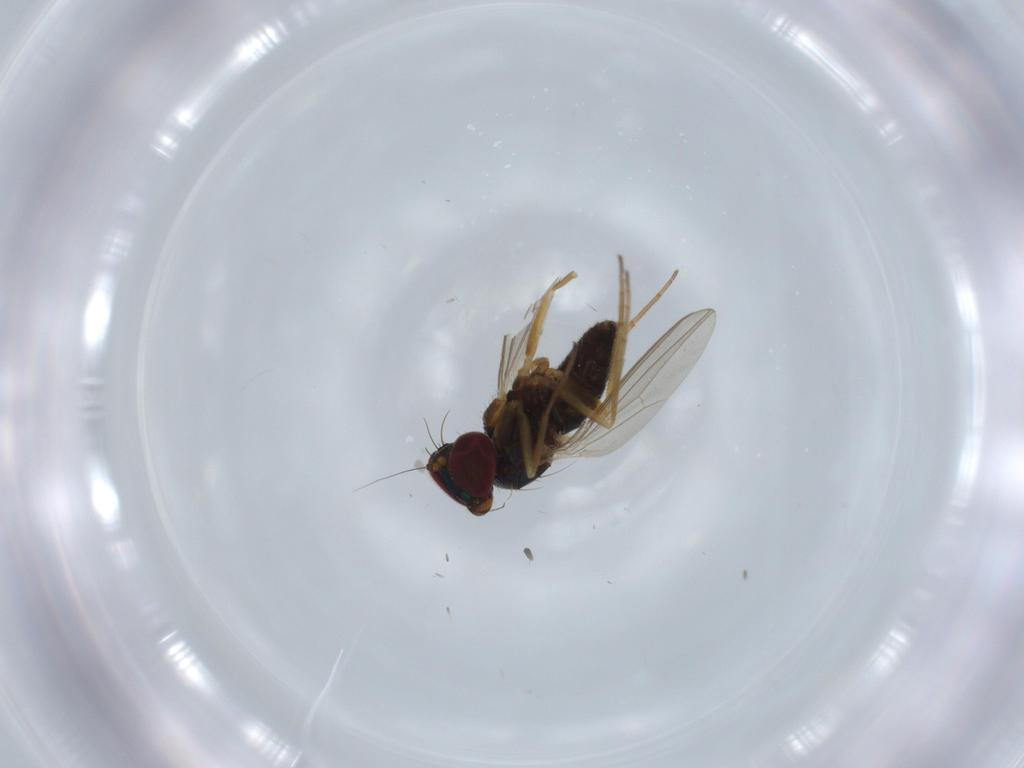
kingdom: Animalia
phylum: Arthropoda
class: Insecta
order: Diptera
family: Dolichopodidae
